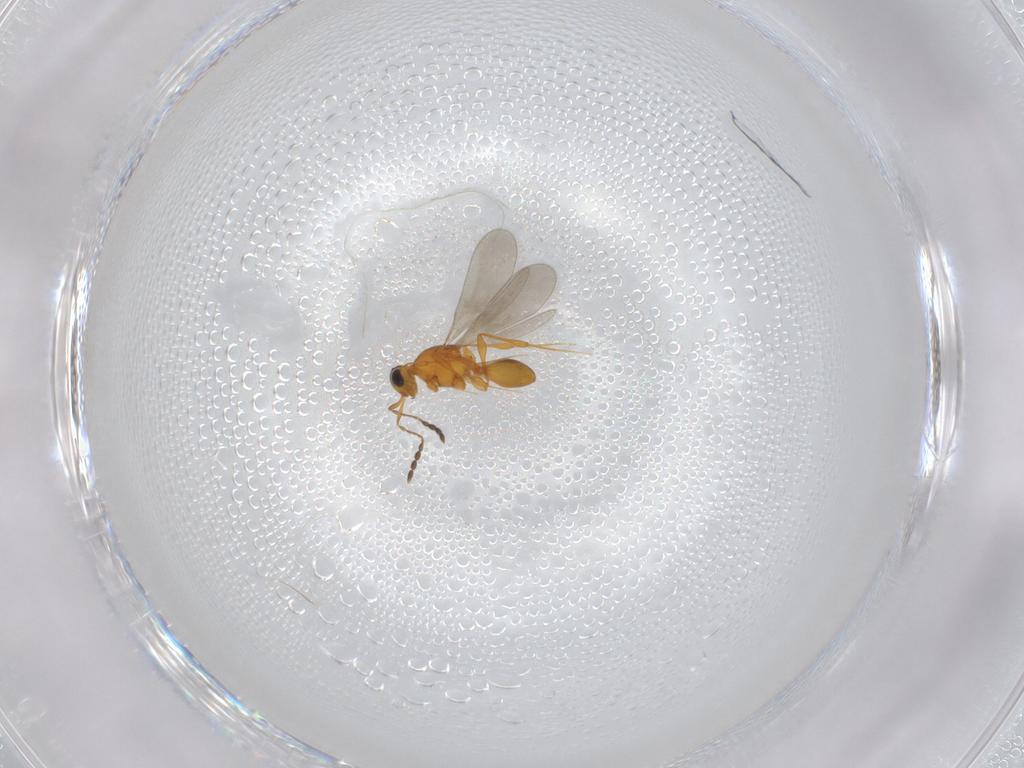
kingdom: Animalia
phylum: Arthropoda
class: Insecta
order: Hymenoptera
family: Platygastridae
